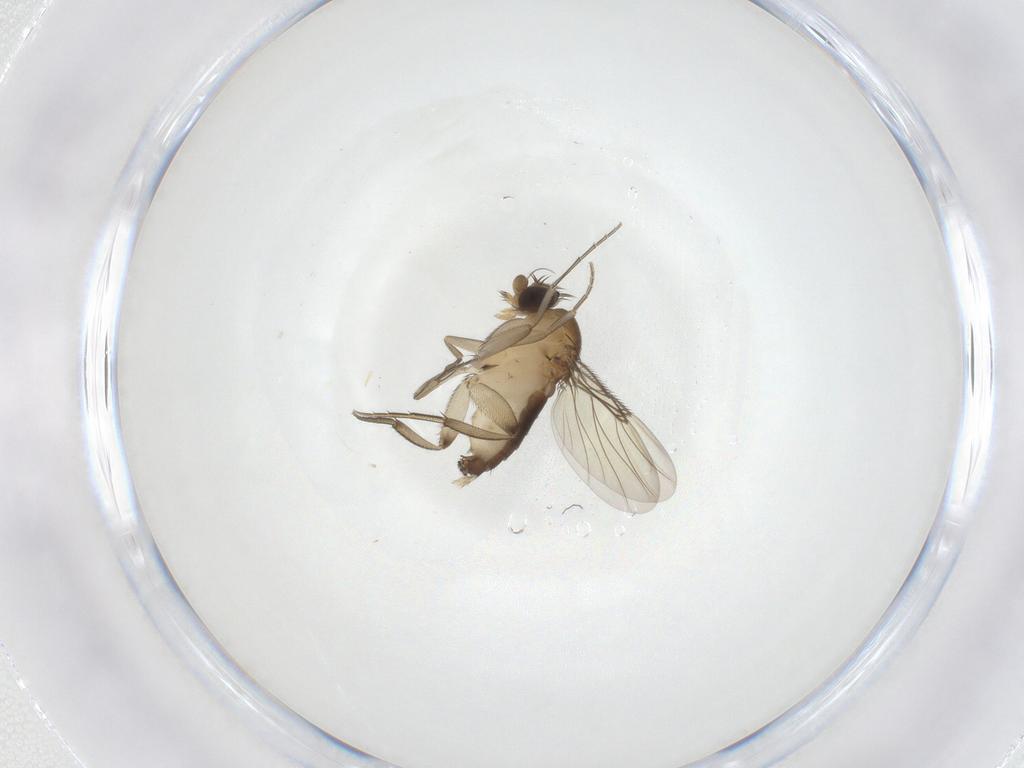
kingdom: Animalia
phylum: Arthropoda
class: Insecta
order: Diptera
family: Phoridae
